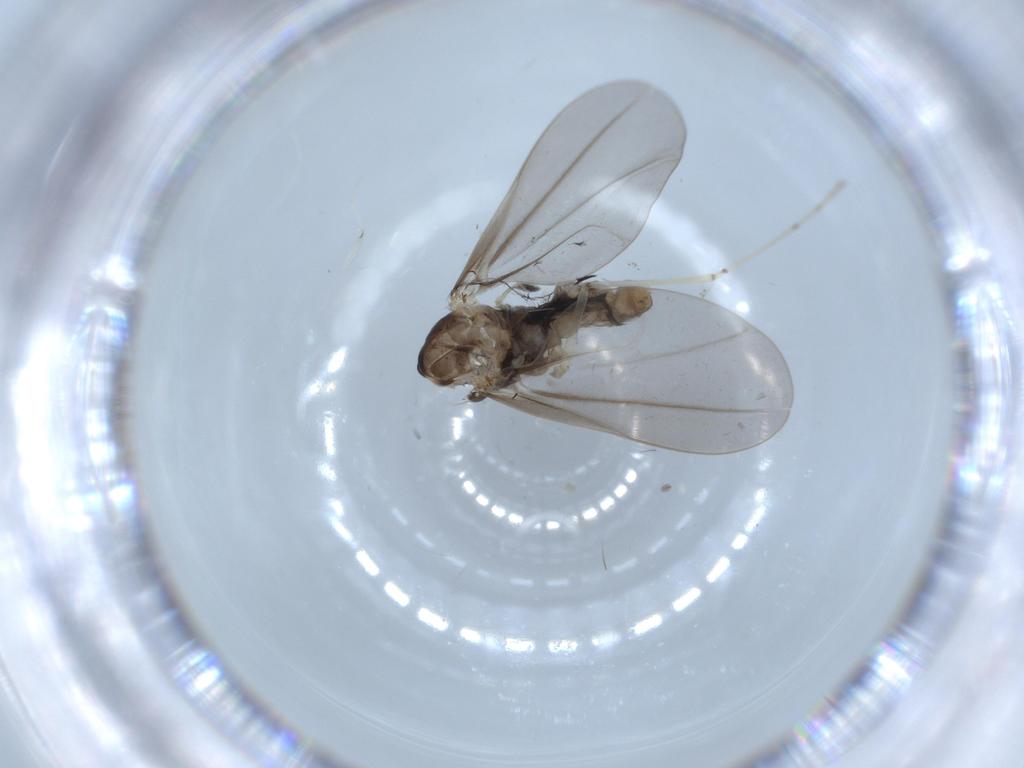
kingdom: Animalia
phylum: Arthropoda
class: Insecta
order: Diptera
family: Cecidomyiidae
